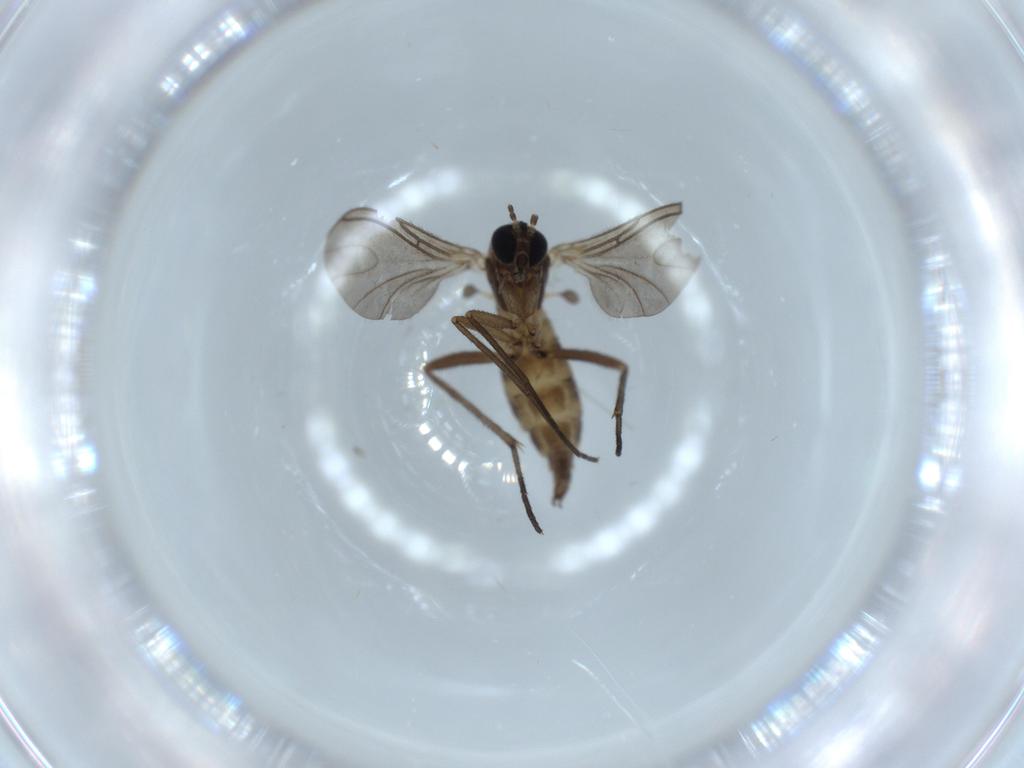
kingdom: Animalia
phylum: Arthropoda
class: Insecta
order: Diptera
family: Sciaridae
